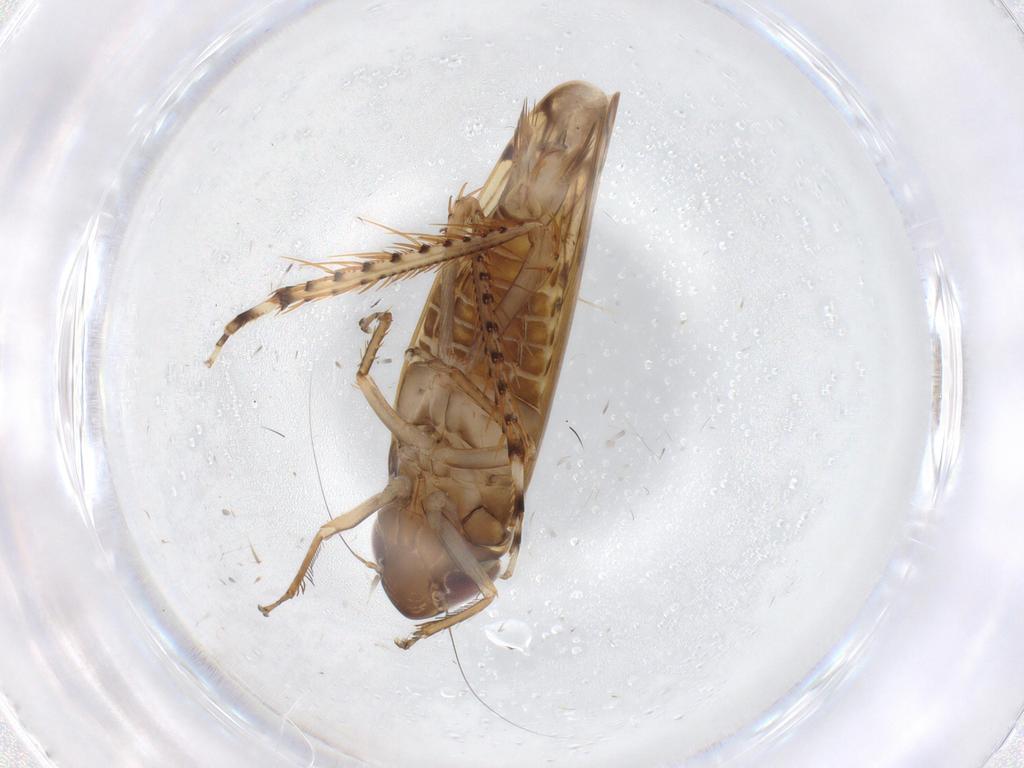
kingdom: Animalia
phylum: Arthropoda
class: Insecta
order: Hemiptera
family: Cicadellidae
